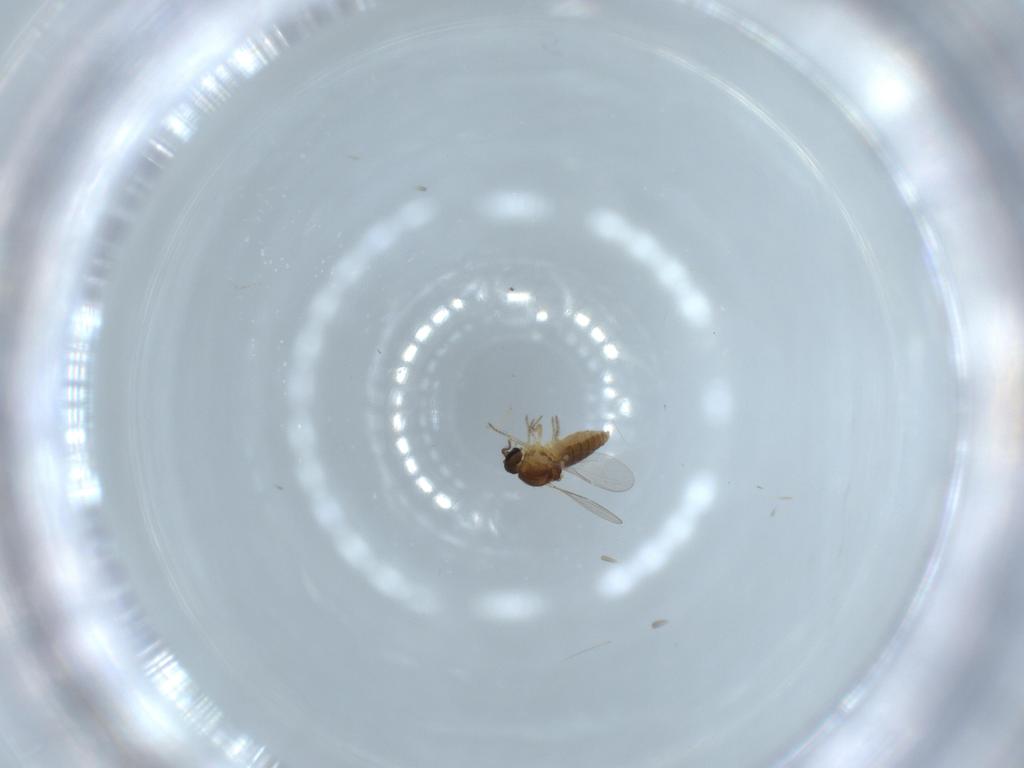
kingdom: Animalia
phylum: Arthropoda
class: Insecta
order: Diptera
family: Ceratopogonidae
